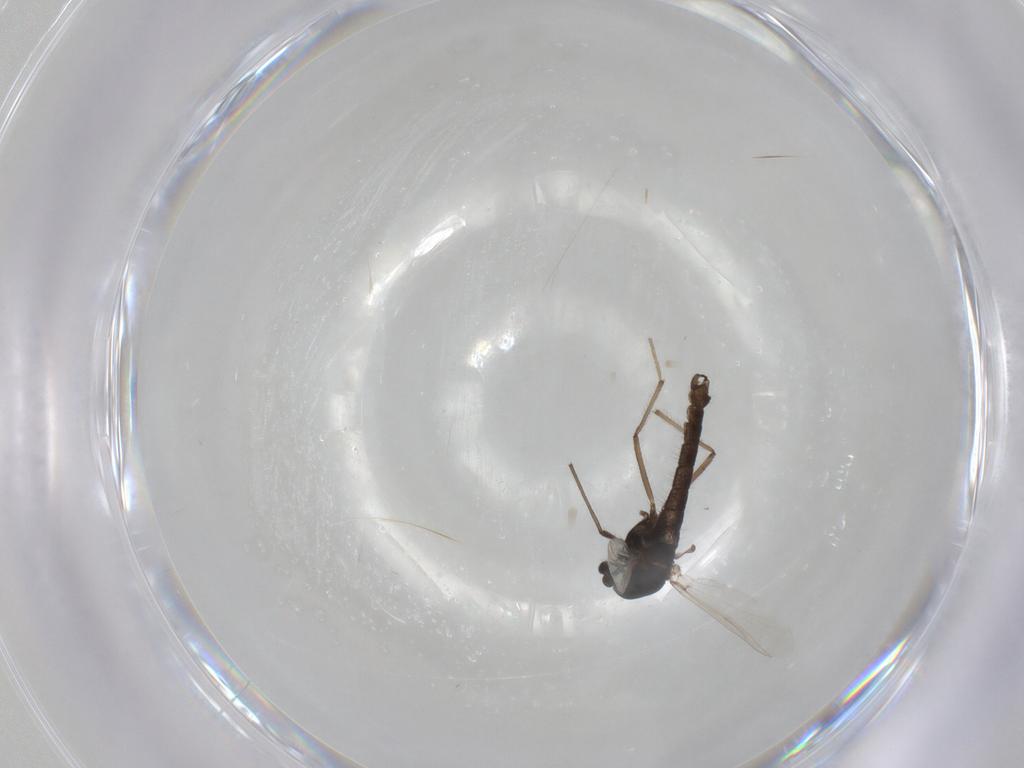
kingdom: Animalia
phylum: Arthropoda
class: Insecta
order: Diptera
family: Chironomidae
